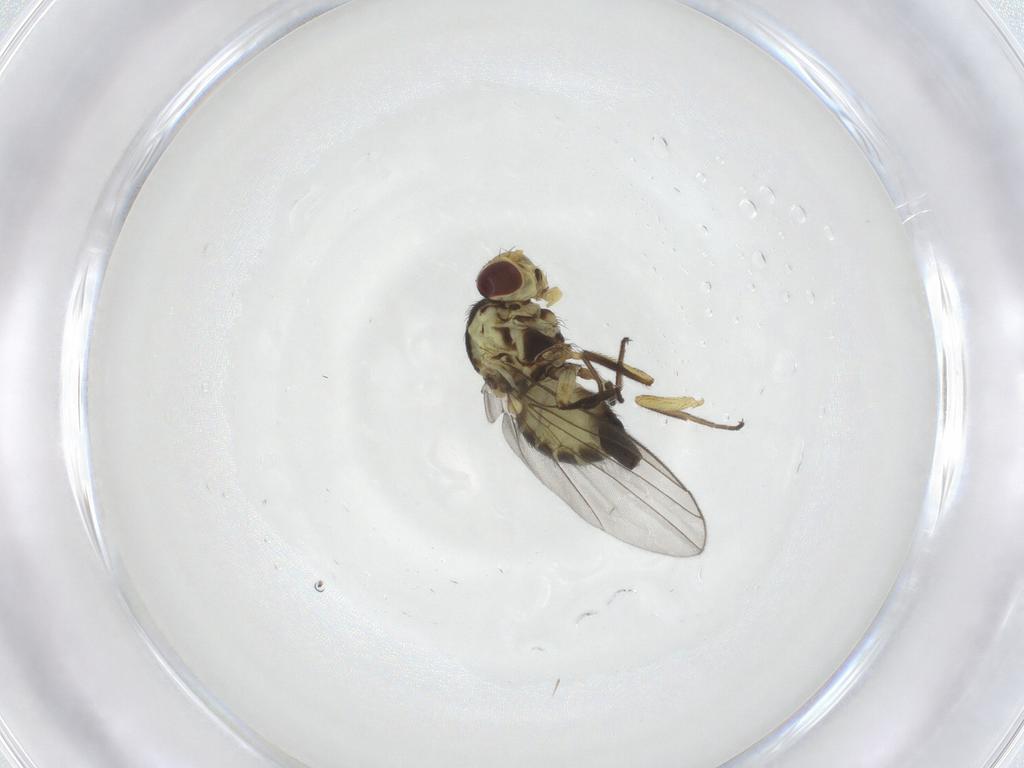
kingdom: Animalia
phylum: Arthropoda
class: Insecta
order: Diptera
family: Agromyzidae
